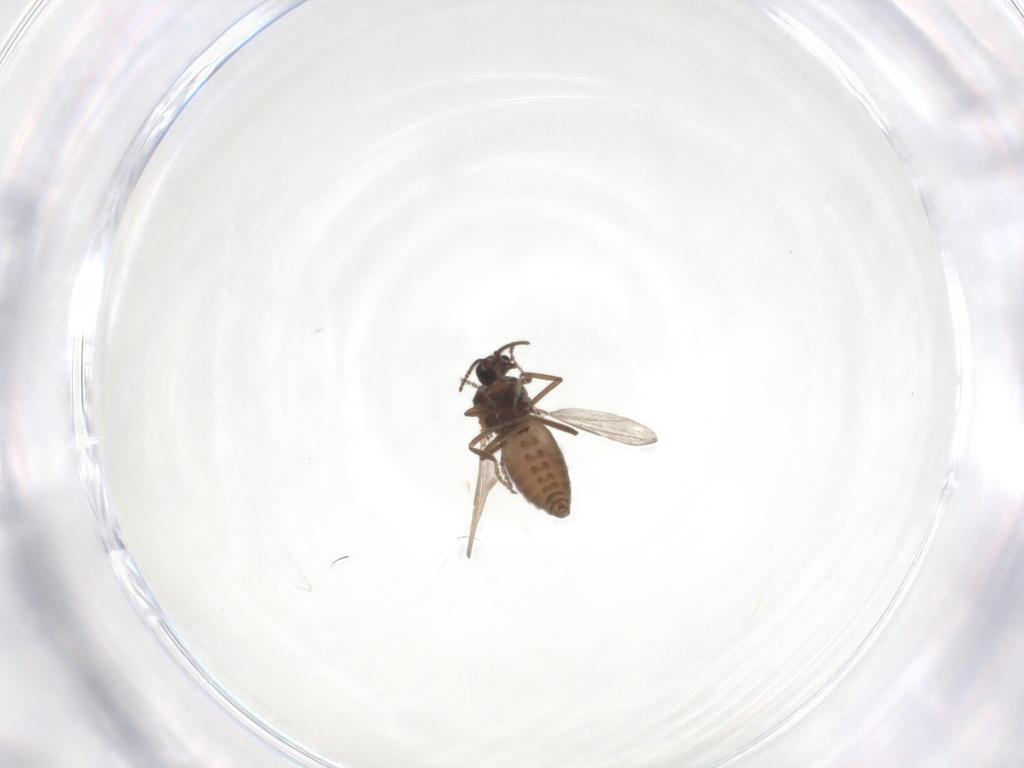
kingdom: Animalia
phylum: Arthropoda
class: Insecta
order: Diptera
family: Ceratopogonidae
